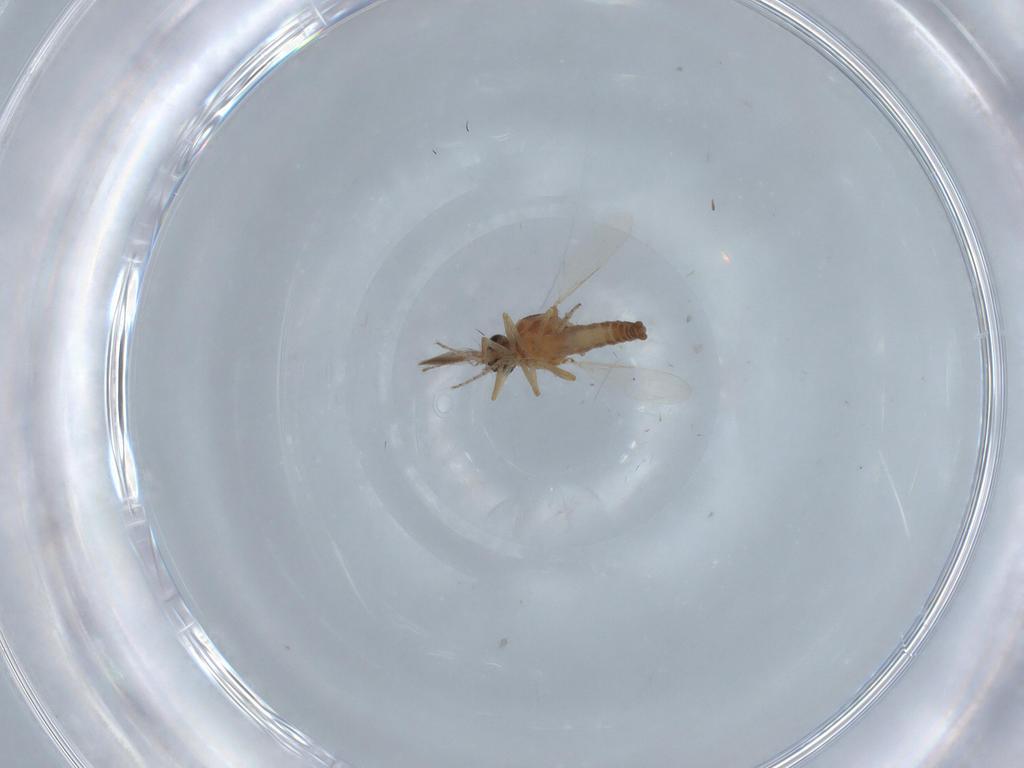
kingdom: Animalia
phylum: Arthropoda
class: Insecta
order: Diptera
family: Ceratopogonidae
